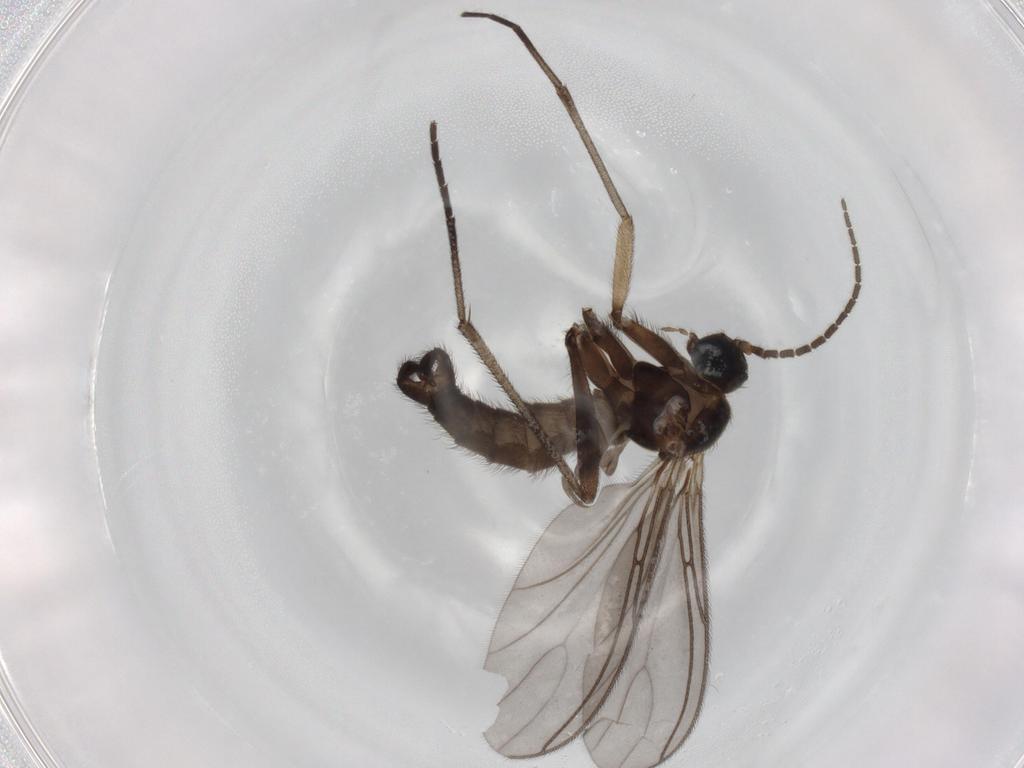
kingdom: Animalia
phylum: Arthropoda
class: Insecta
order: Diptera
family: Sciaridae
